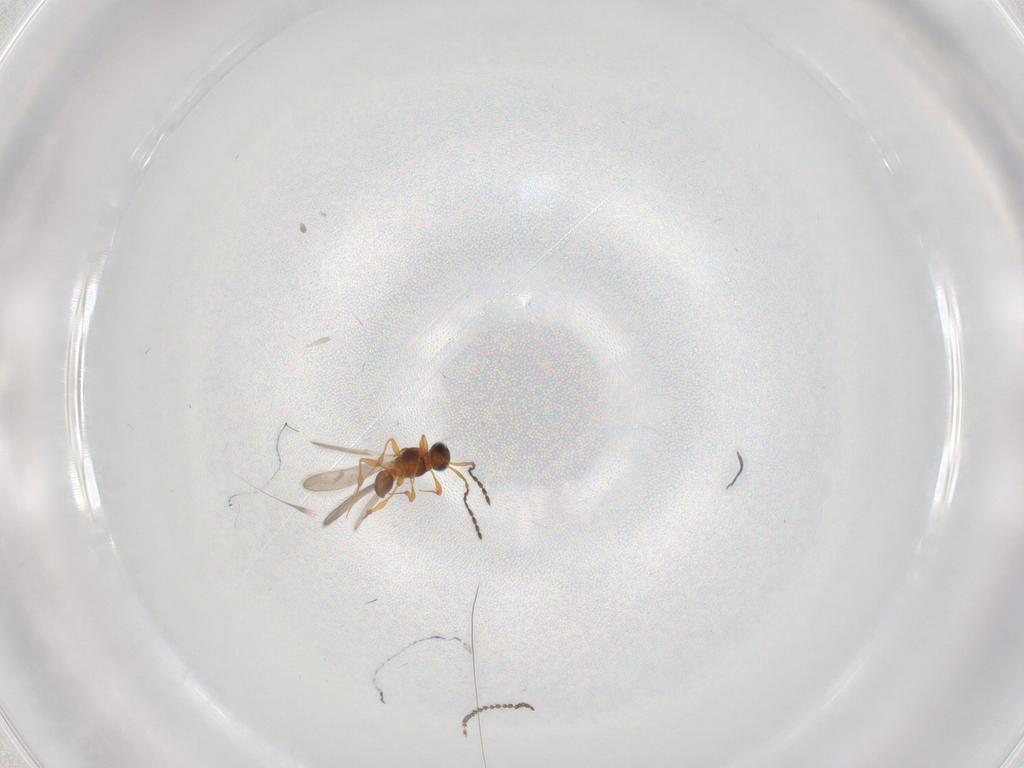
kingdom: Animalia
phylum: Arthropoda
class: Insecta
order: Hymenoptera
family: Platygastridae
